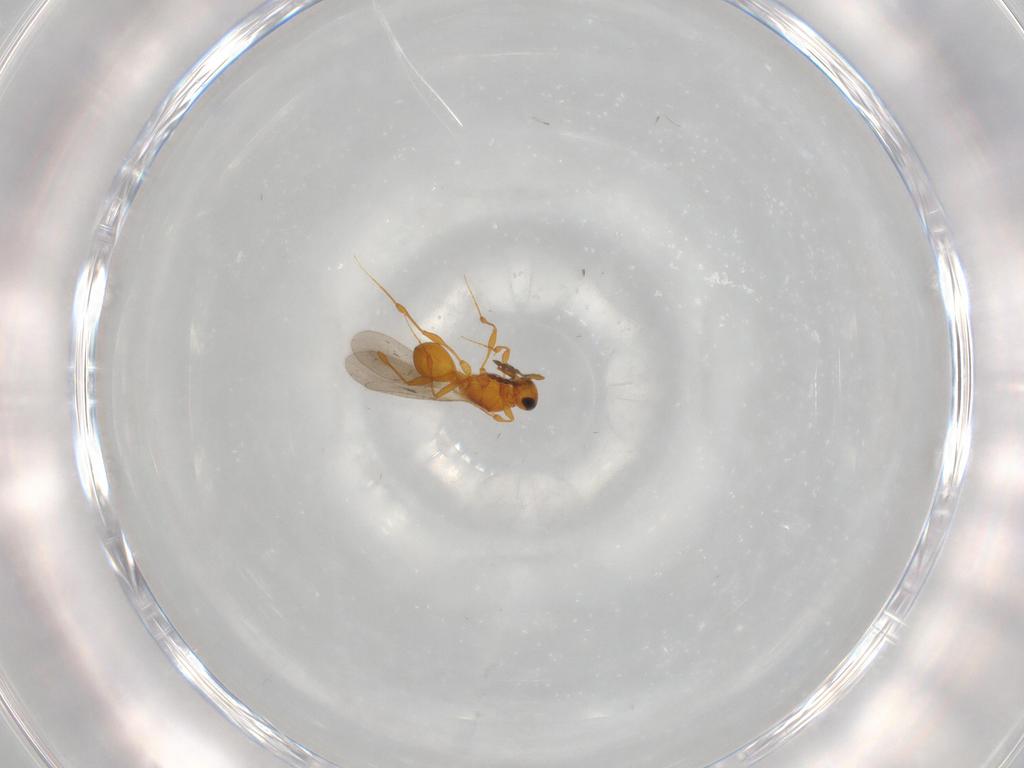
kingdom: Animalia
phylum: Arthropoda
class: Insecta
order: Hymenoptera
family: Platygastridae
